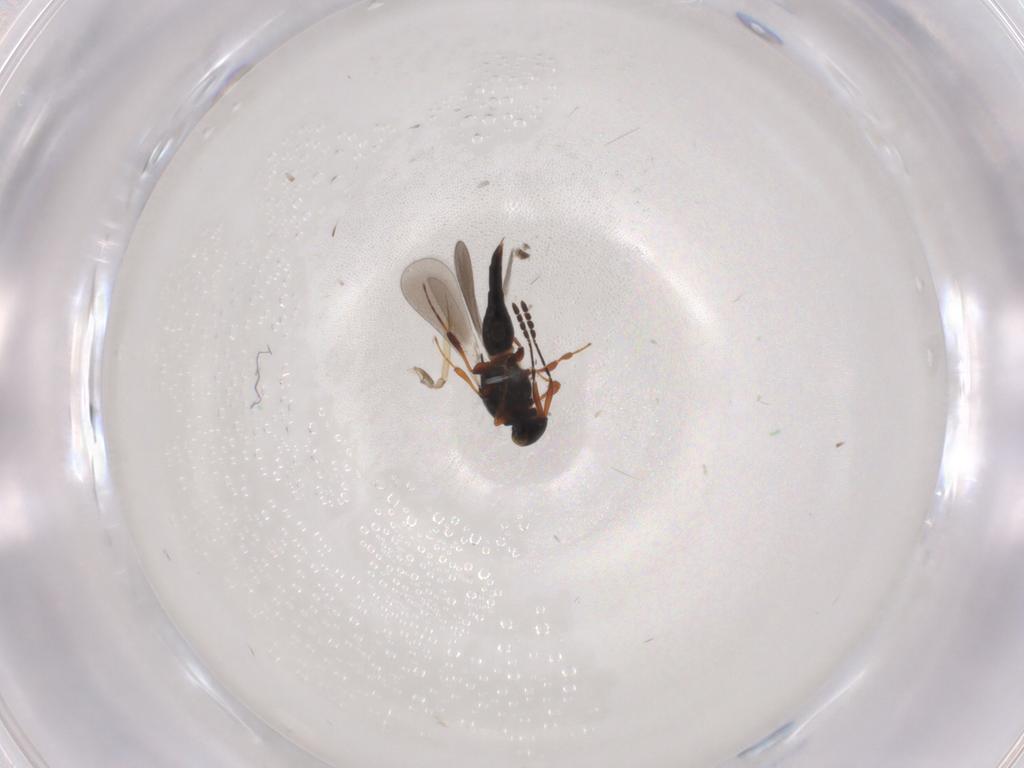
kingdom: Animalia
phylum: Arthropoda
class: Insecta
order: Hymenoptera
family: Platygastridae
